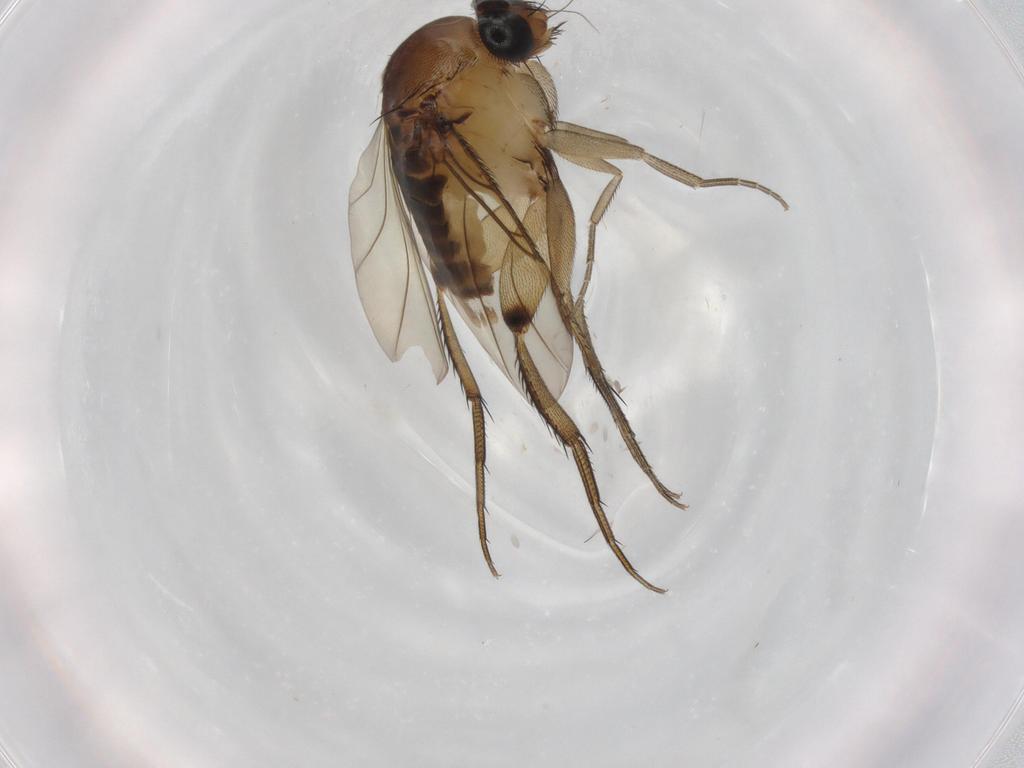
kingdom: Animalia
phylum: Arthropoda
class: Insecta
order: Diptera
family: Phoridae
